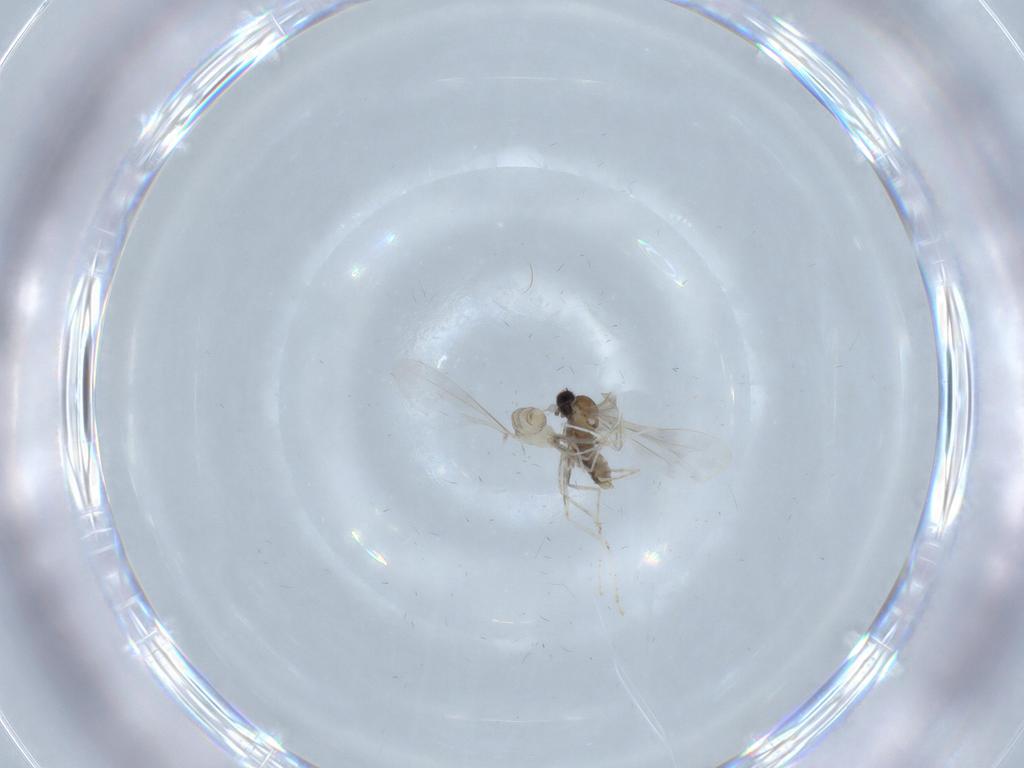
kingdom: Animalia
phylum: Arthropoda
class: Insecta
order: Diptera
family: Cecidomyiidae
